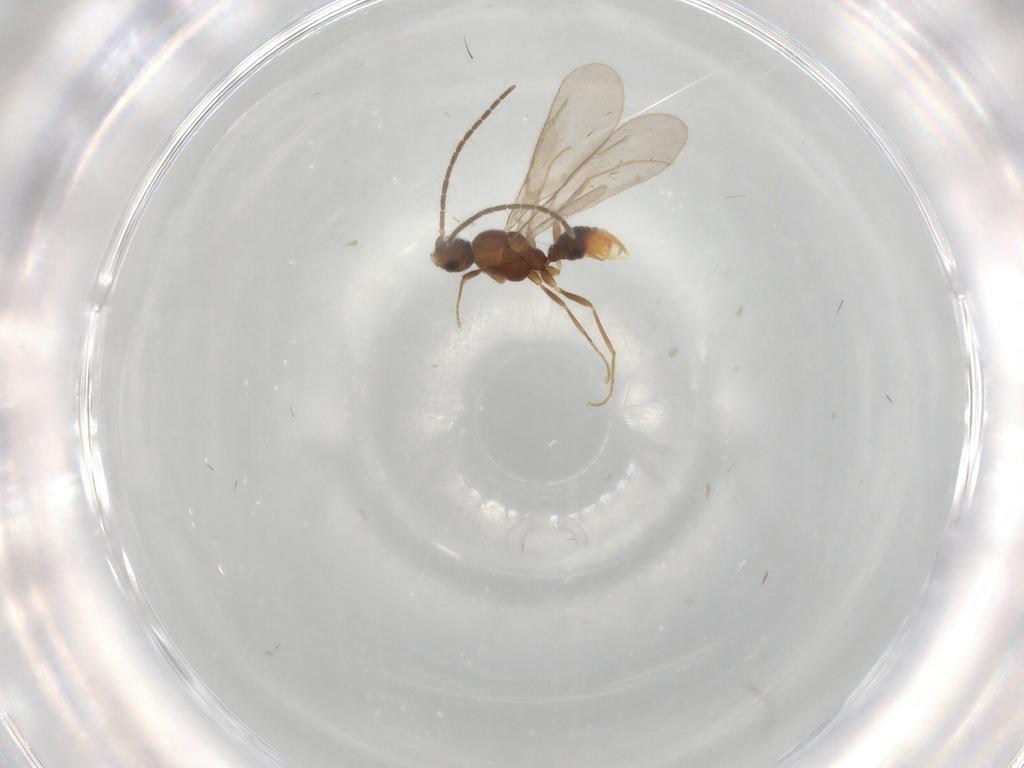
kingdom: Animalia
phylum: Arthropoda
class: Insecta
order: Hymenoptera
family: Formicidae
